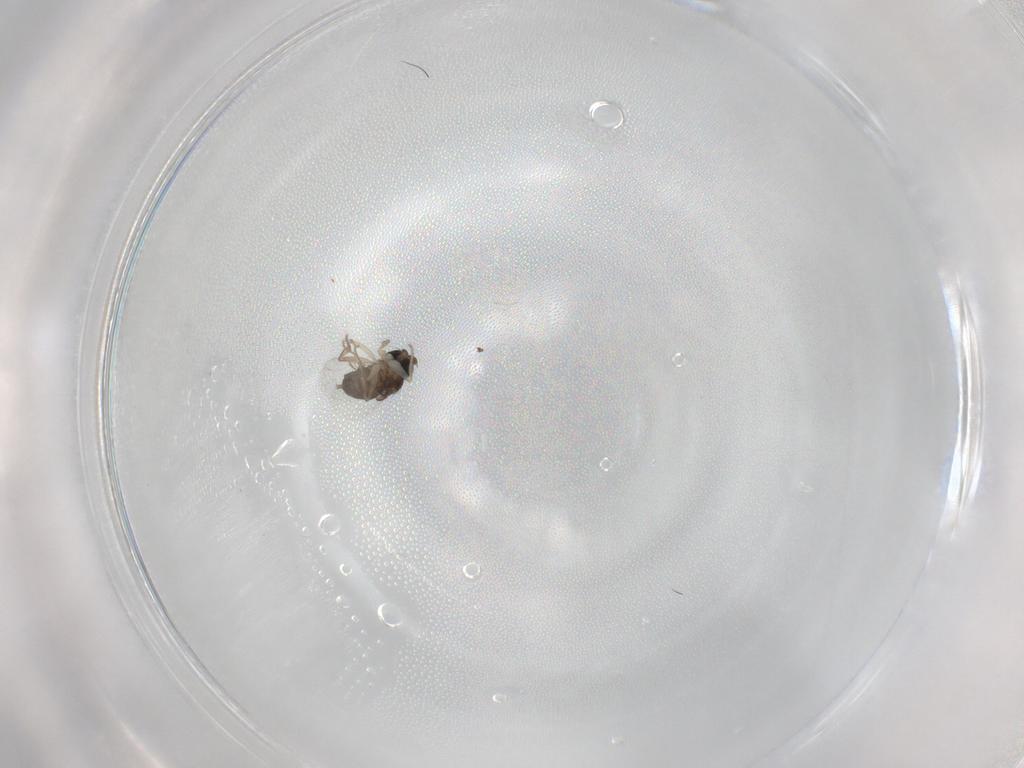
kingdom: Animalia
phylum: Arthropoda
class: Insecta
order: Diptera
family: Phoridae
